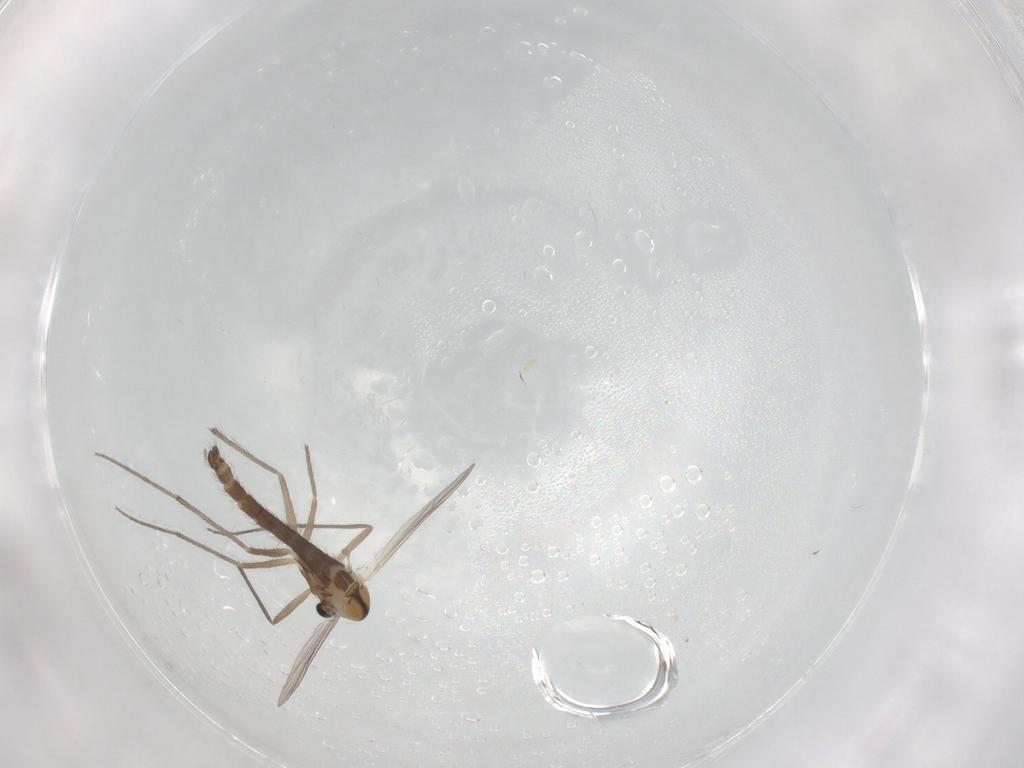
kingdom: Animalia
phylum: Arthropoda
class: Insecta
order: Diptera
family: Chironomidae
